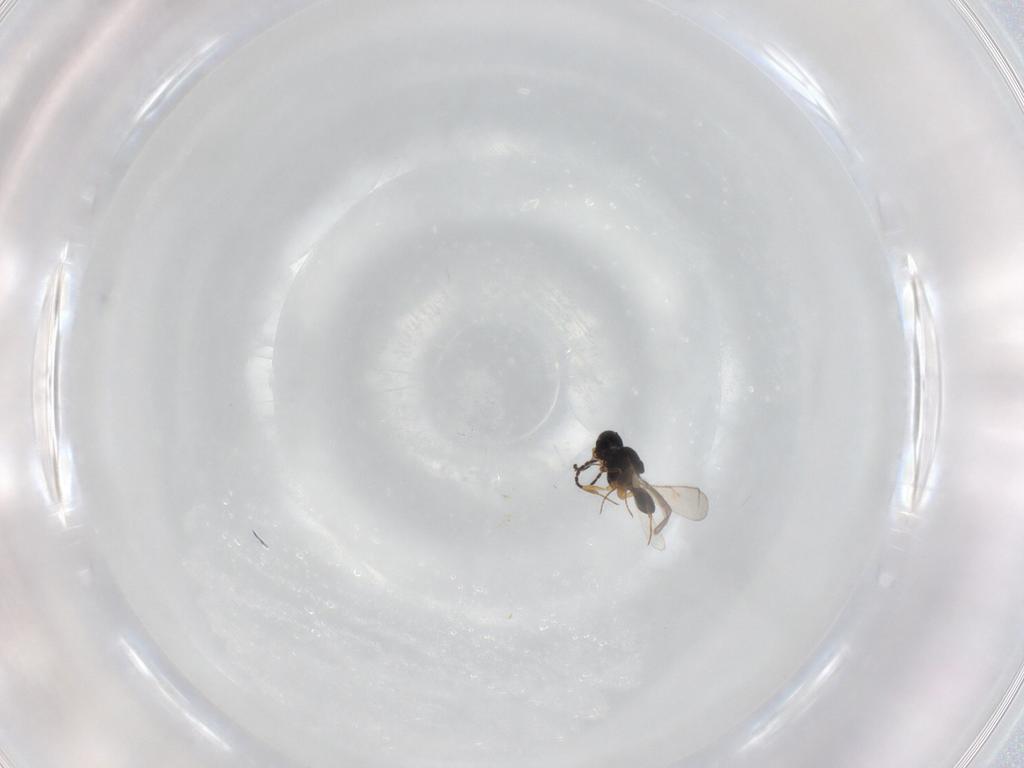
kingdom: Animalia
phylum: Arthropoda
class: Insecta
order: Hymenoptera
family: Scelionidae
